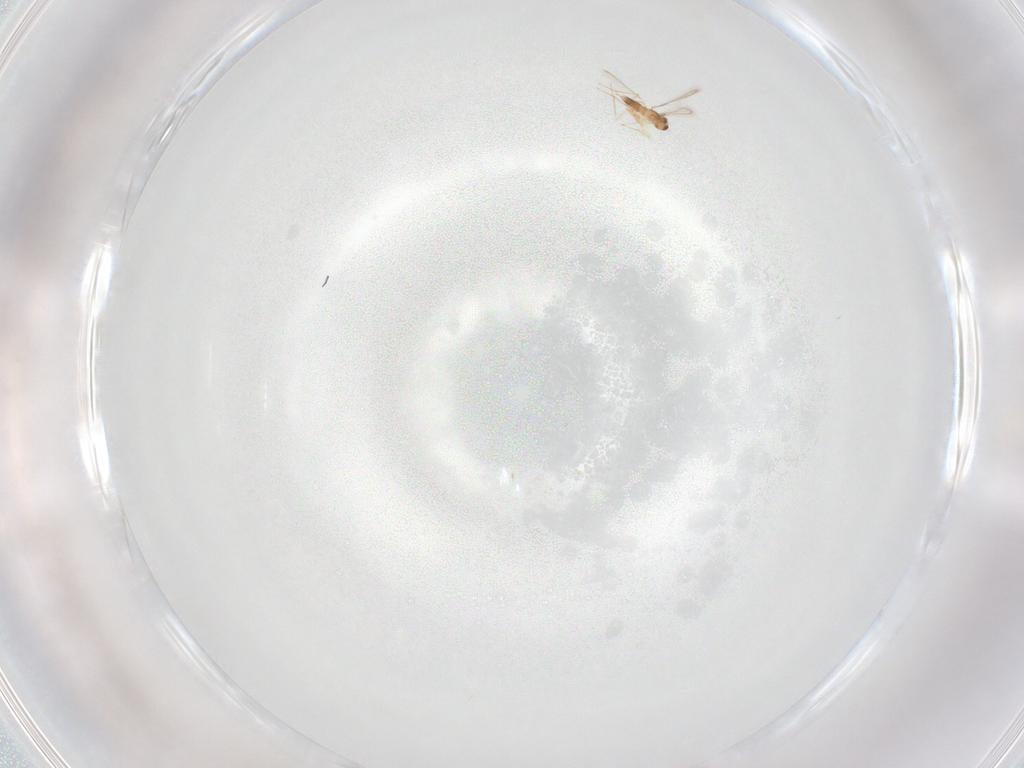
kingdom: Animalia
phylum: Arthropoda
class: Insecta
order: Hymenoptera
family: Mymaridae
